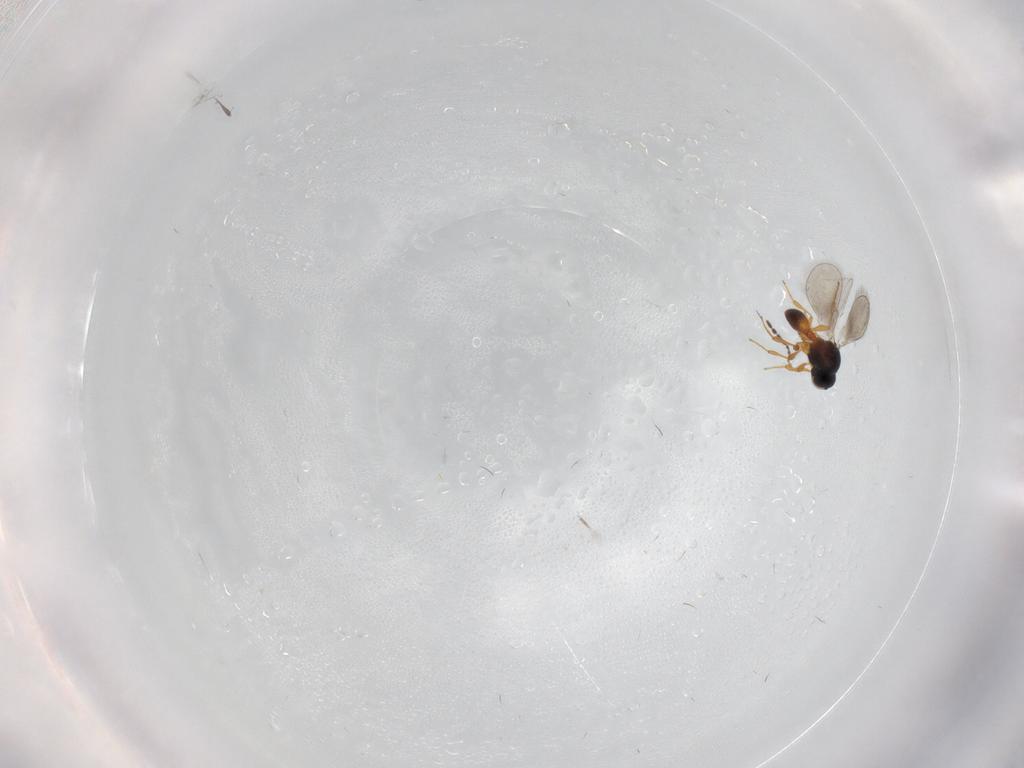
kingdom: Animalia
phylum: Arthropoda
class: Insecta
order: Hymenoptera
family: Platygastridae
